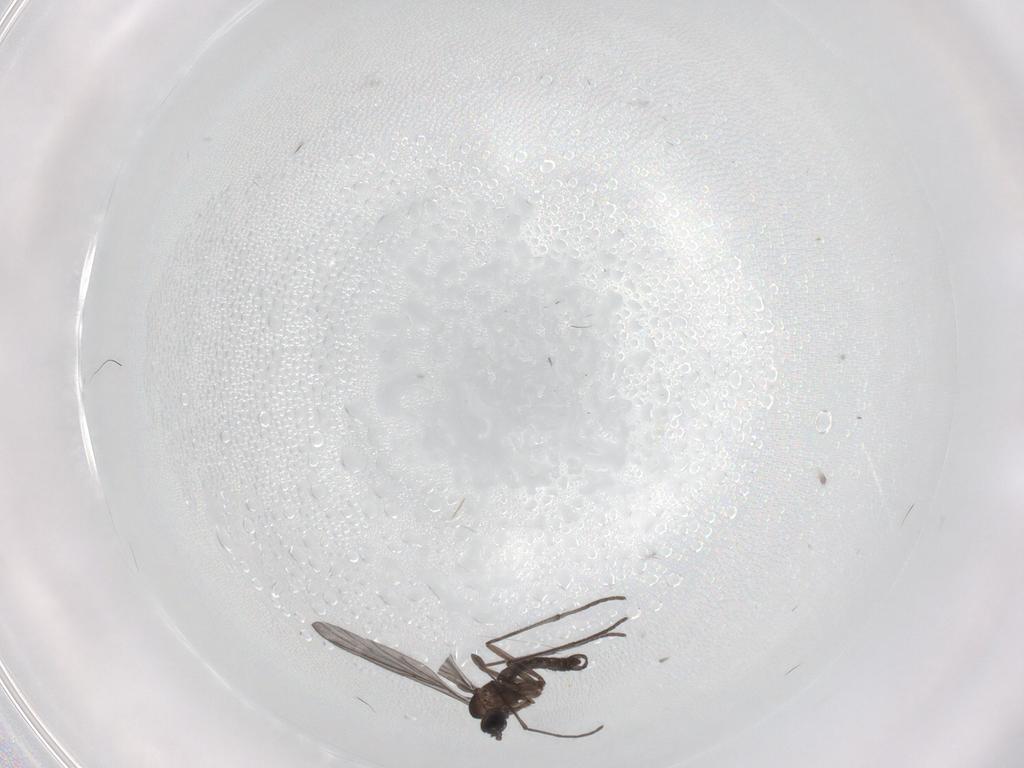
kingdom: Animalia
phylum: Arthropoda
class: Insecta
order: Diptera
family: Sciaridae
